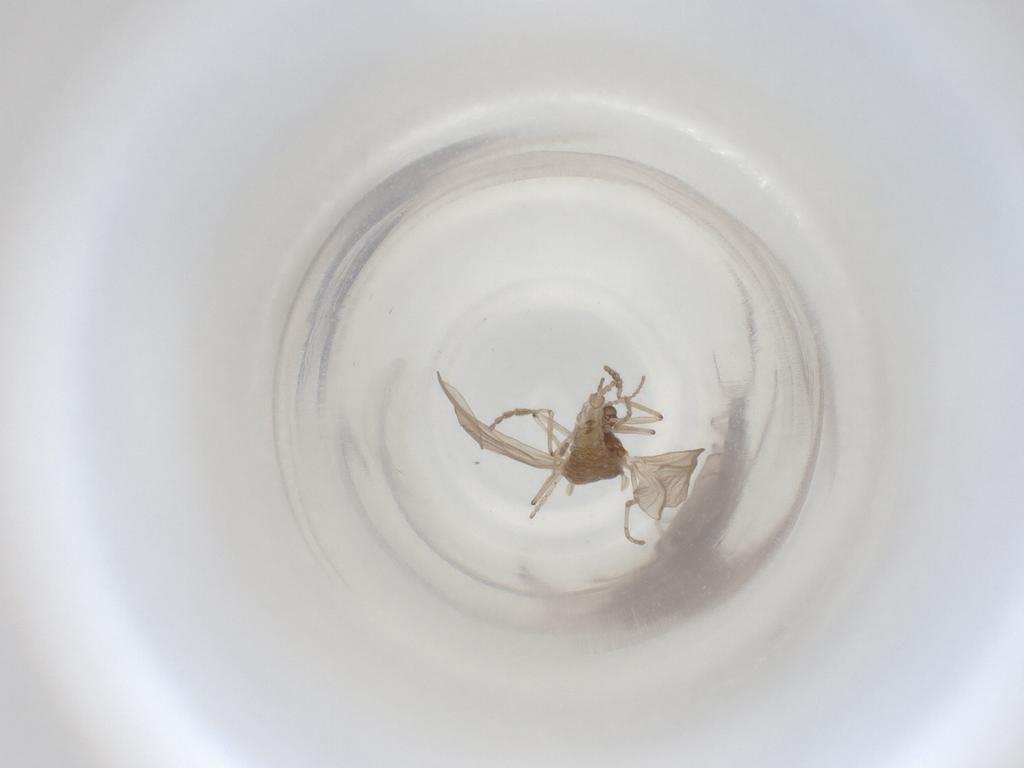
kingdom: Animalia
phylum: Arthropoda
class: Insecta
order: Diptera
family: Cecidomyiidae
